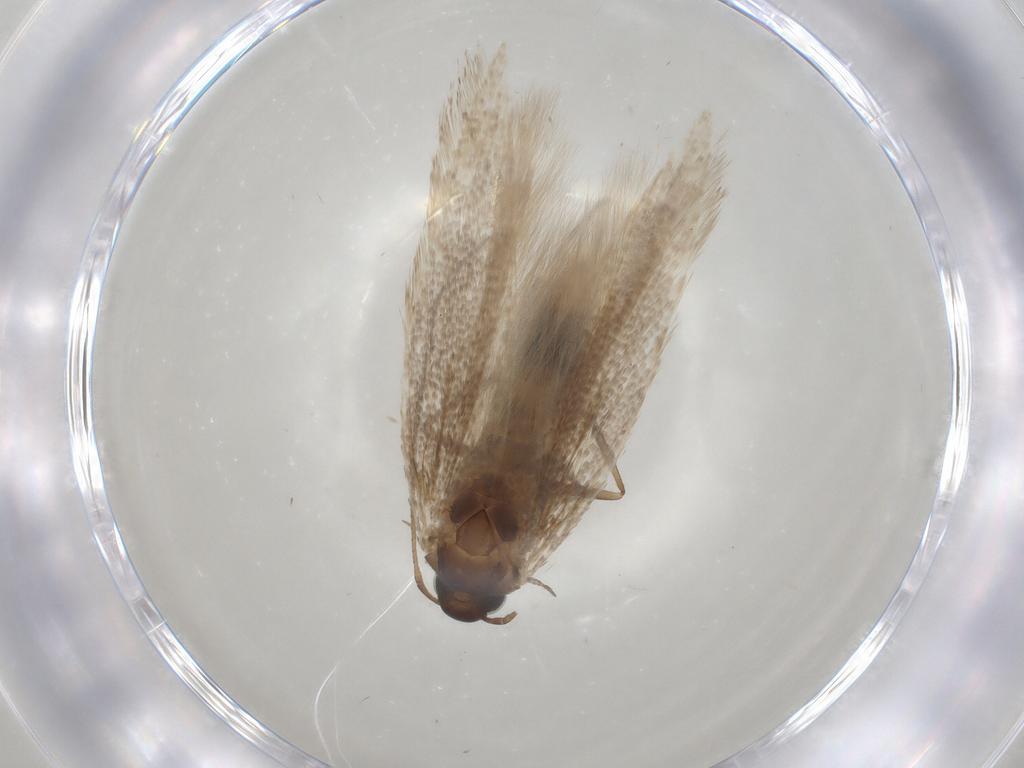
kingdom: Animalia
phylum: Arthropoda
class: Insecta
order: Lepidoptera
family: Gelechiidae
